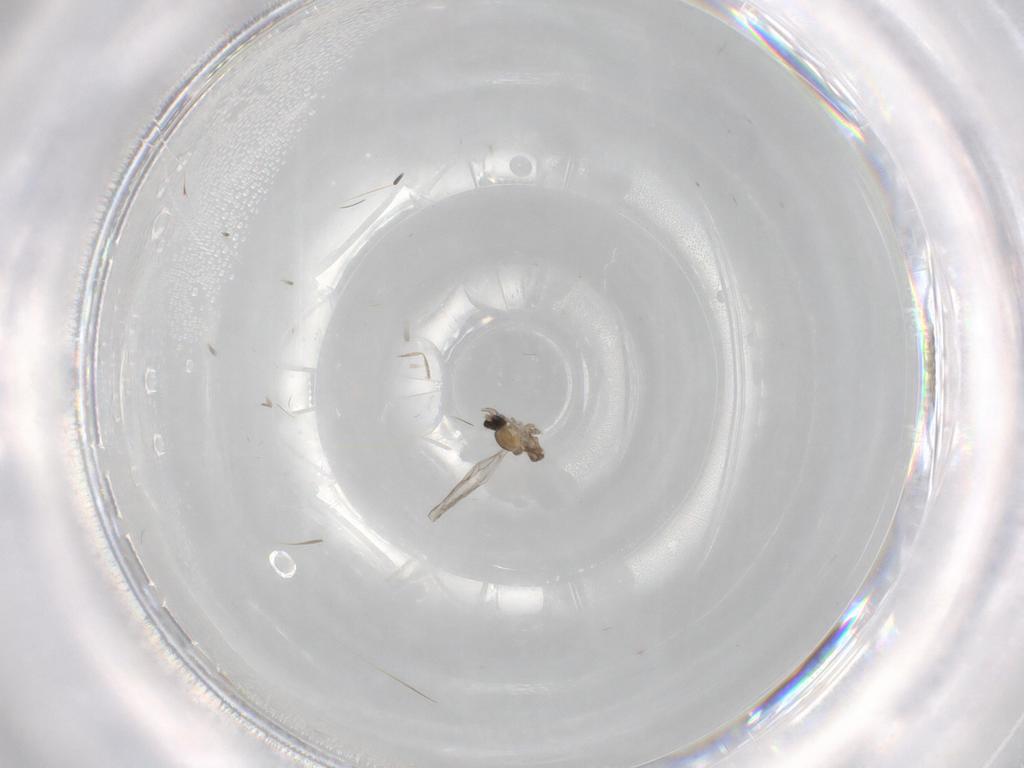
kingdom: Animalia
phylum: Arthropoda
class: Insecta
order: Diptera
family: Cecidomyiidae
